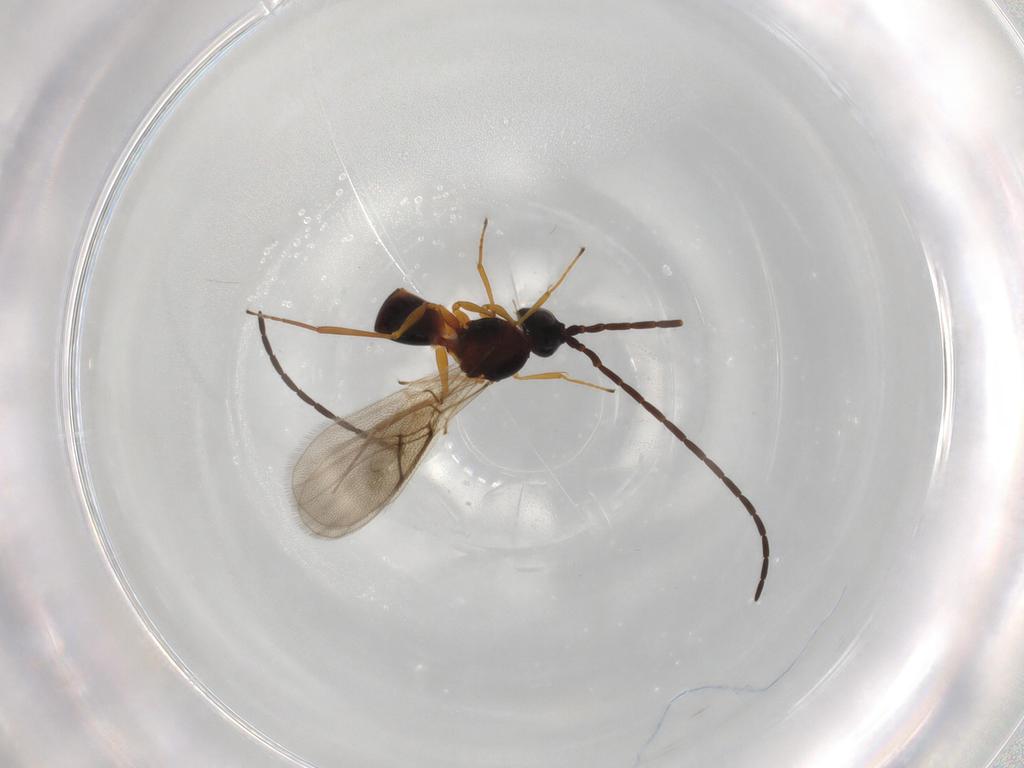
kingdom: Animalia
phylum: Arthropoda
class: Insecta
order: Hymenoptera
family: Figitidae
